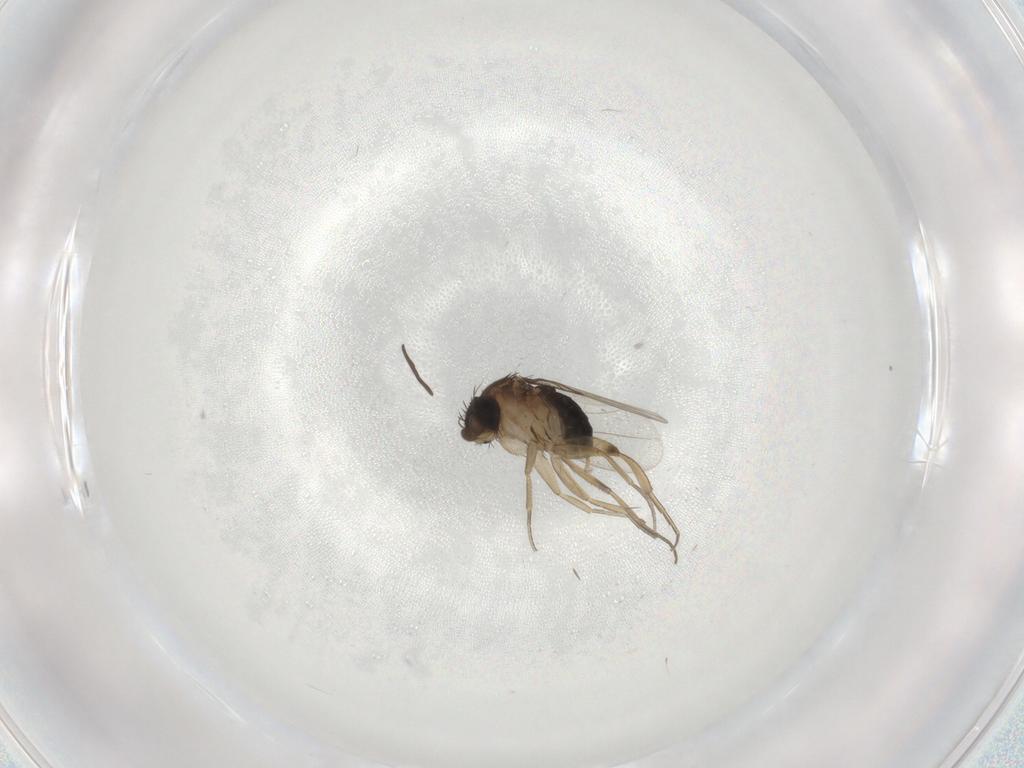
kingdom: Animalia
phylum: Arthropoda
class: Insecta
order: Diptera
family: Phoridae
